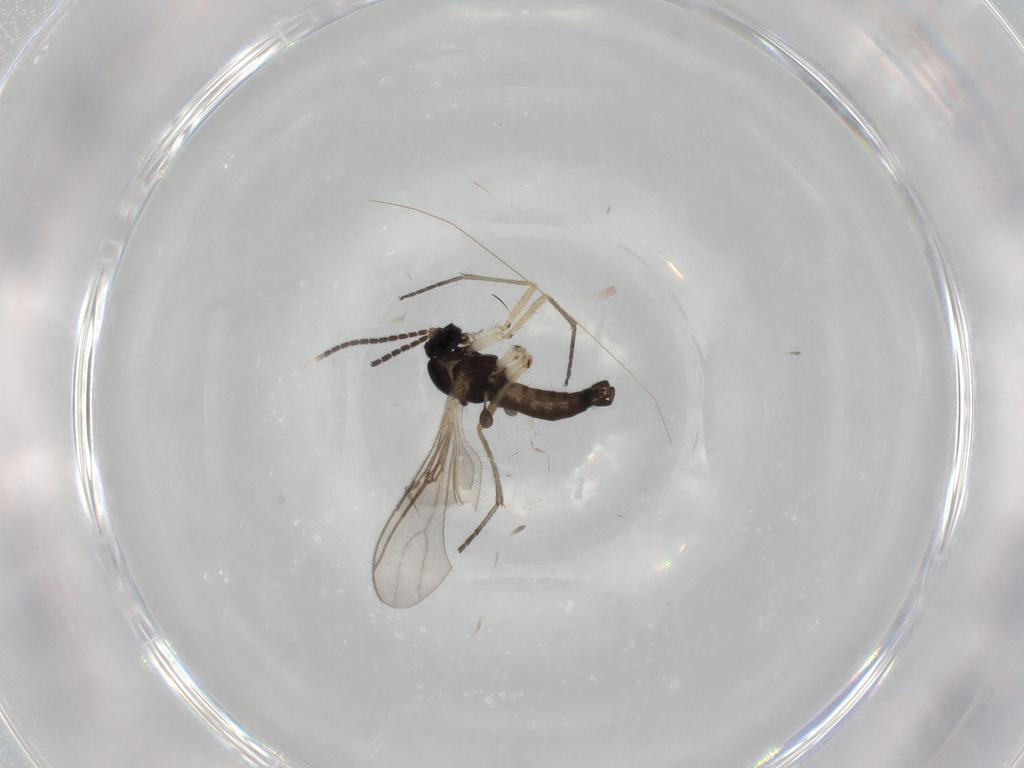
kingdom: Animalia
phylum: Arthropoda
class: Insecta
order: Diptera
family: Sciaridae
